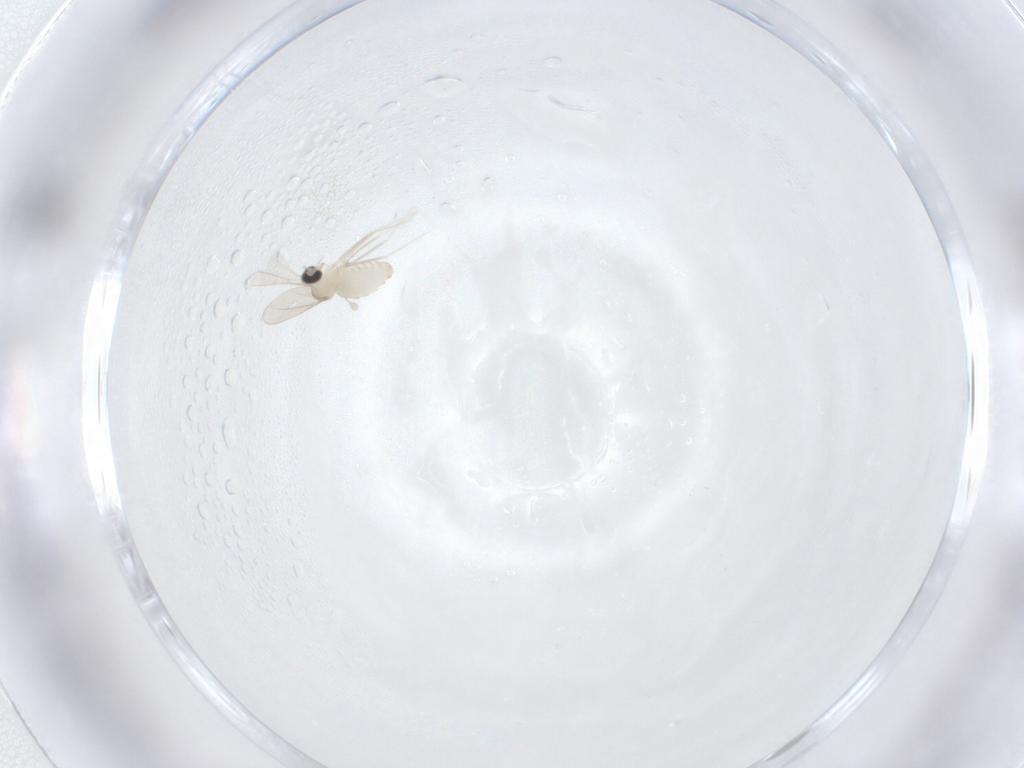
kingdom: Animalia
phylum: Arthropoda
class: Insecta
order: Diptera
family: Cecidomyiidae
